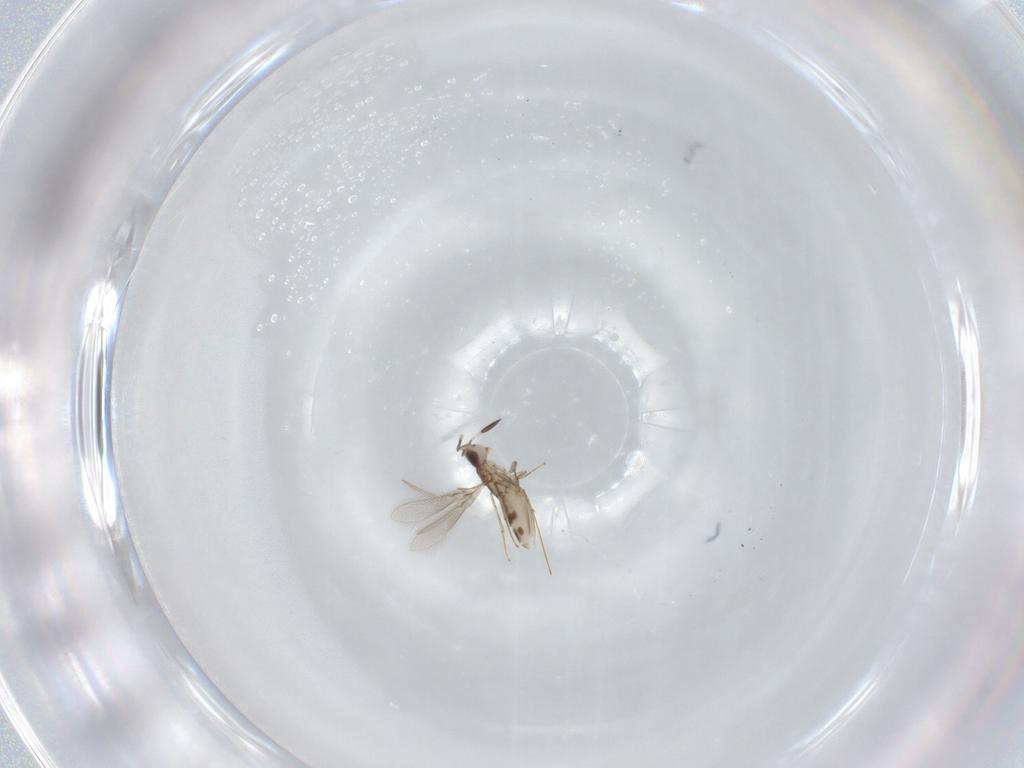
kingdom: Animalia
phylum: Arthropoda
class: Insecta
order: Hymenoptera
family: Mymaridae
